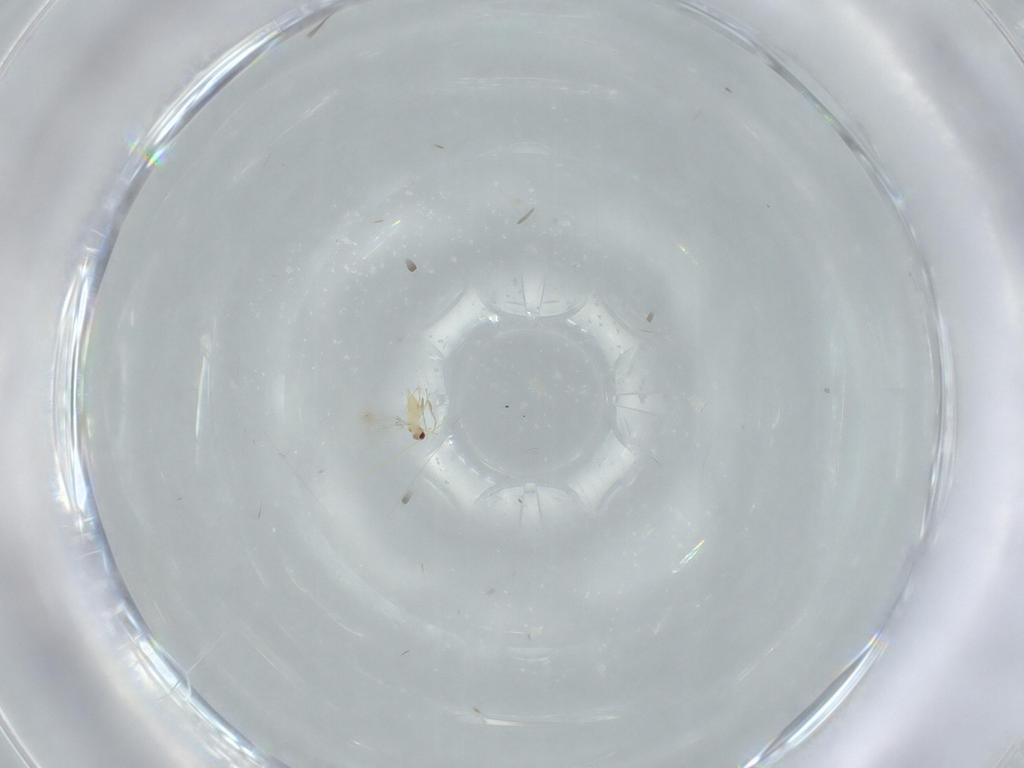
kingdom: Animalia
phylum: Arthropoda
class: Insecta
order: Hymenoptera
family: Mymaridae
